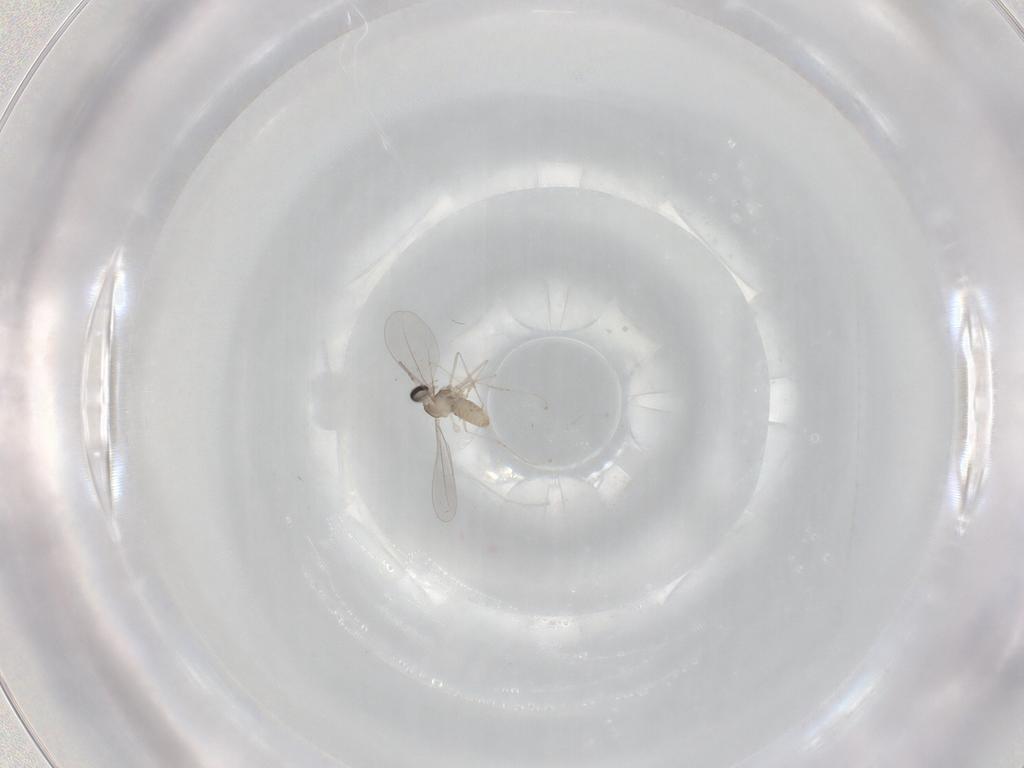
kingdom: Animalia
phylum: Arthropoda
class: Insecta
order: Diptera
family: Cecidomyiidae
